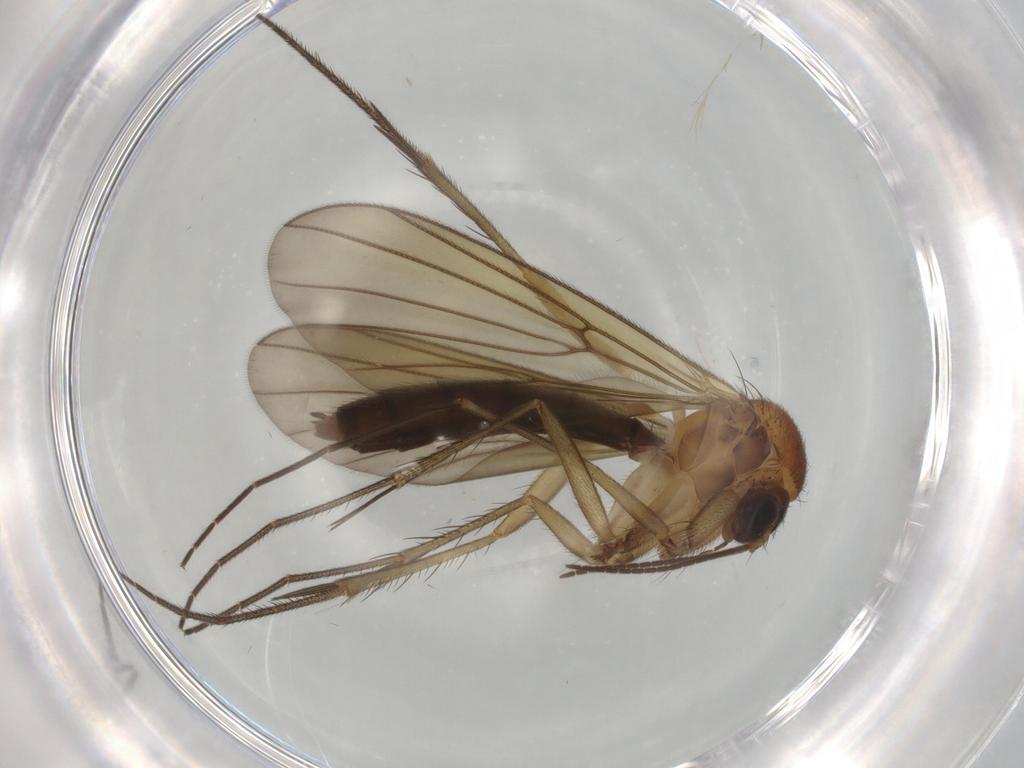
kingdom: Animalia
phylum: Arthropoda
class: Insecta
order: Diptera
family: Mycetophilidae
